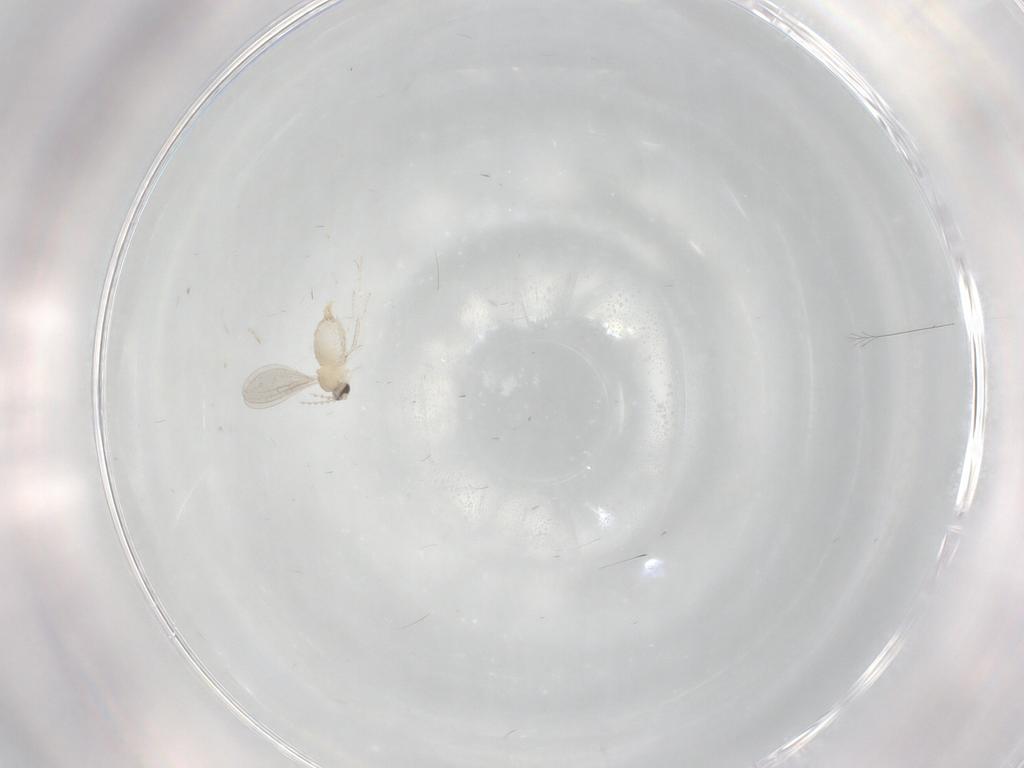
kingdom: Animalia
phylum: Arthropoda
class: Insecta
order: Diptera
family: Cecidomyiidae
